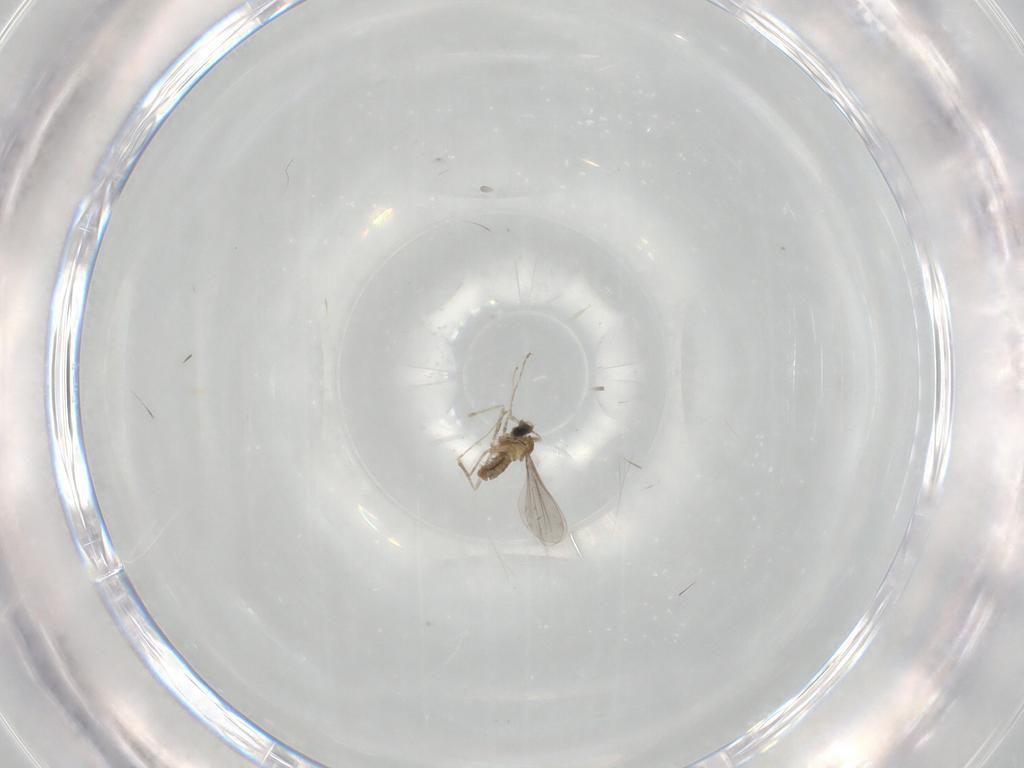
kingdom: Animalia
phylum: Arthropoda
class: Insecta
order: Diptera
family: Cecidomyiidae
